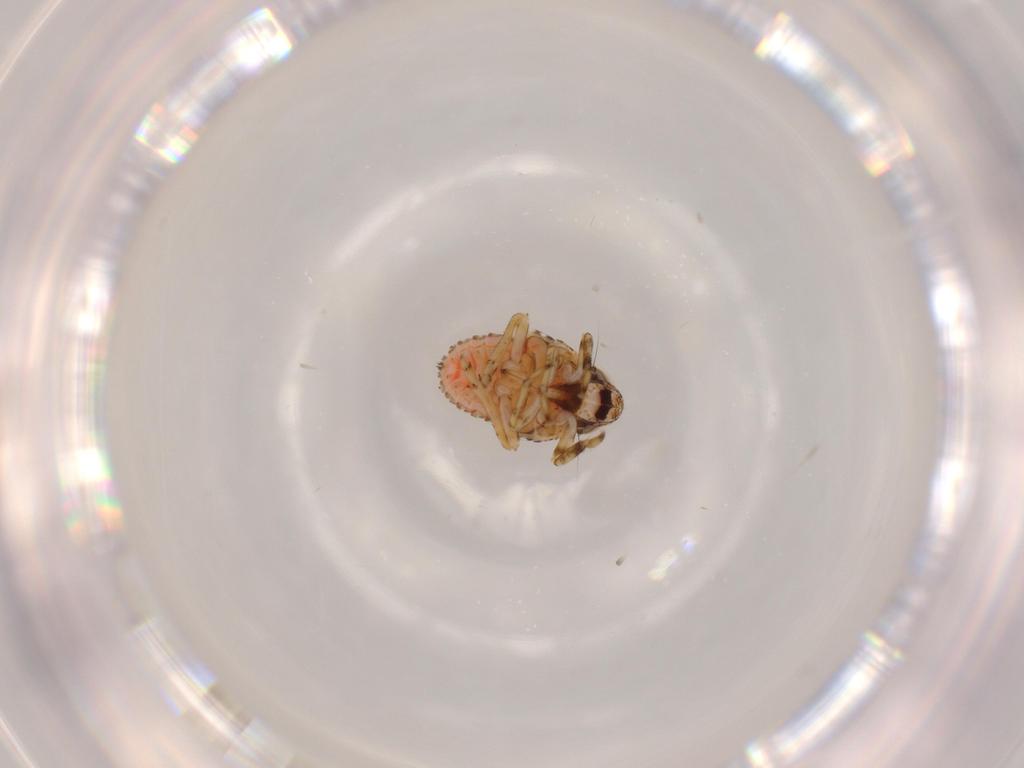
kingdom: Animalia
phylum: Arthropoda
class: Insecta
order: Hemiptera
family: Issidae
